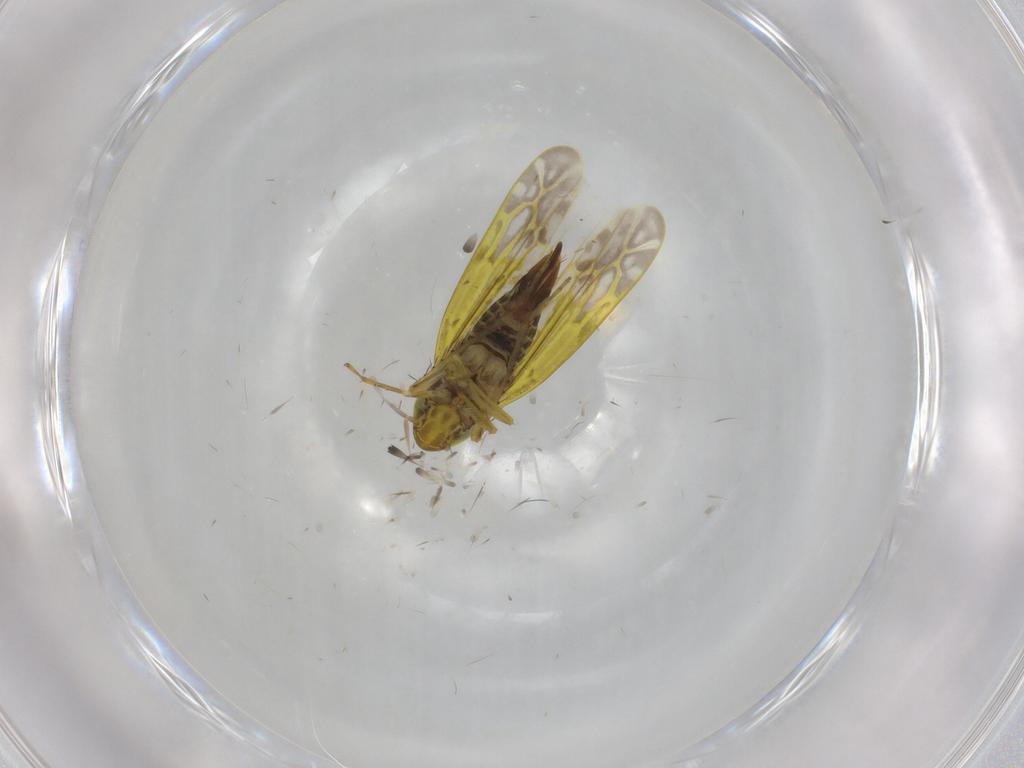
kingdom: Animalia
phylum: Arthropoda
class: Insecta
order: Hemiptera
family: Cicadellidae
